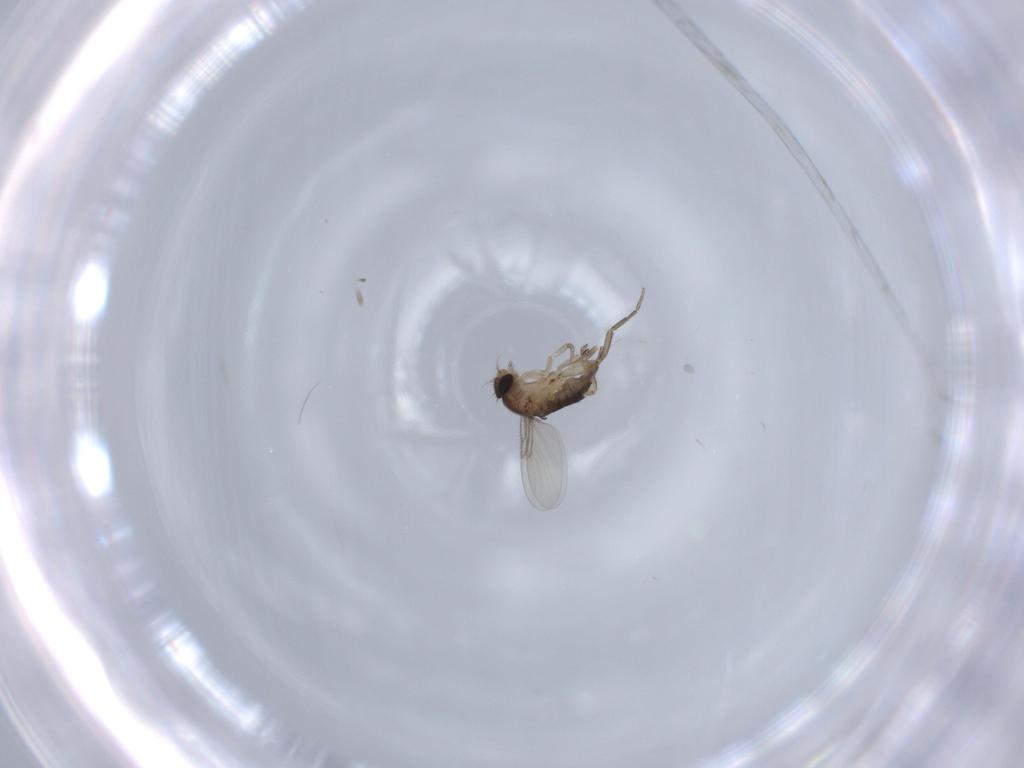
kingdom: Animalia
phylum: Arthropoda
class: Insecta
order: Diptera
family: Phoridae
